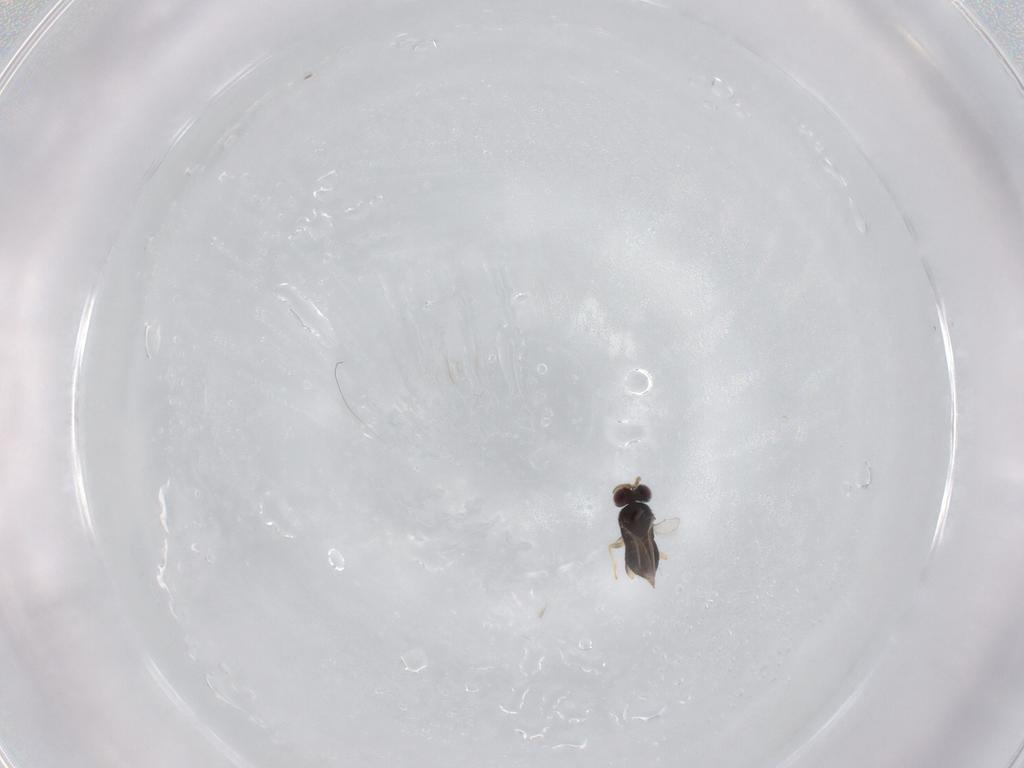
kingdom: Animalia
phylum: Arthropoda
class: Insecta
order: Hymenoptera
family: Aphelinidae
